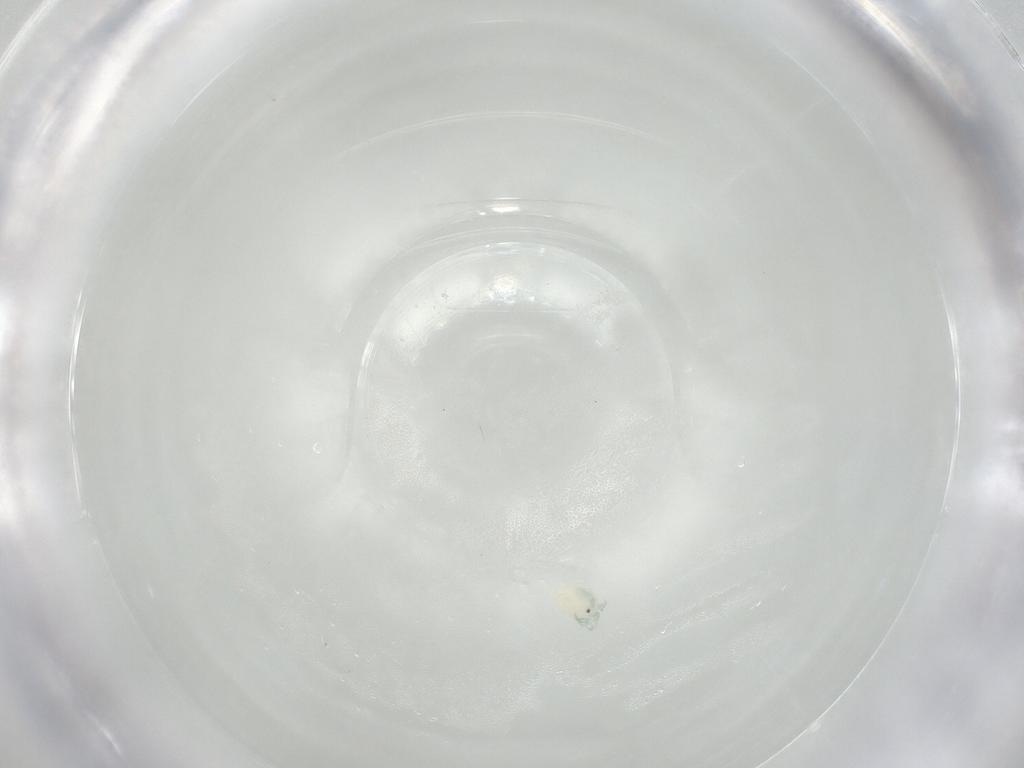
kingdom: Animalia
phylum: Arthropoda
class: Arachnida
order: Trombidiformes
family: Arrenuridae
